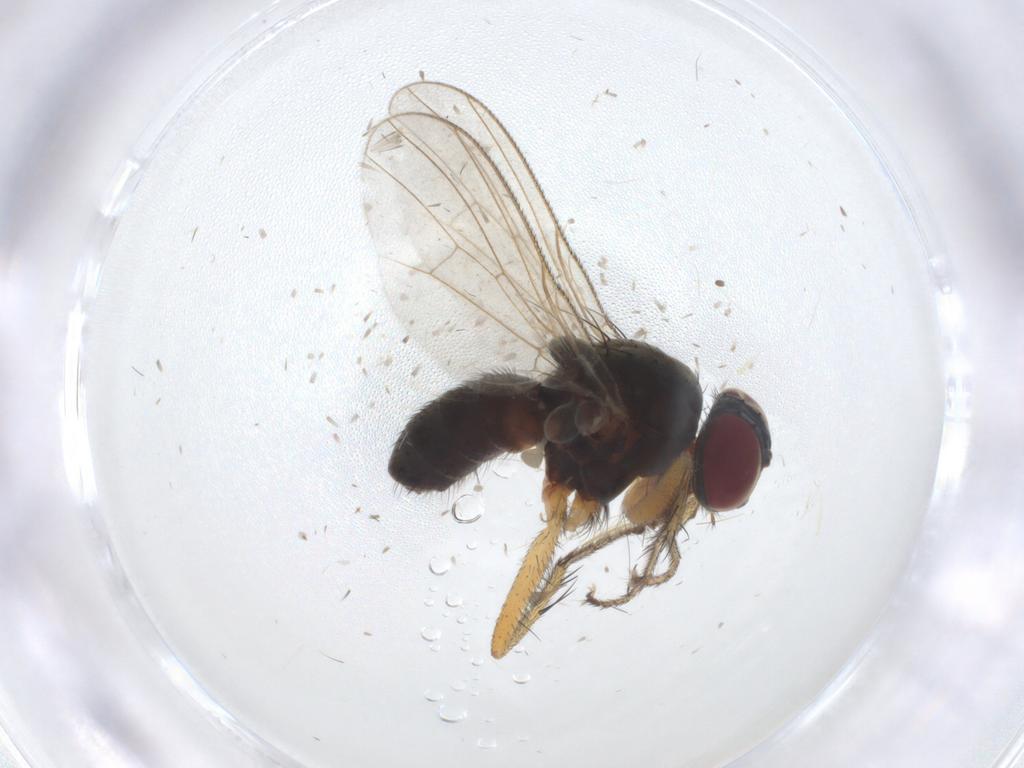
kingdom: Animalia
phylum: Arthropoda
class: Insecta
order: Diptera
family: Muscidae
